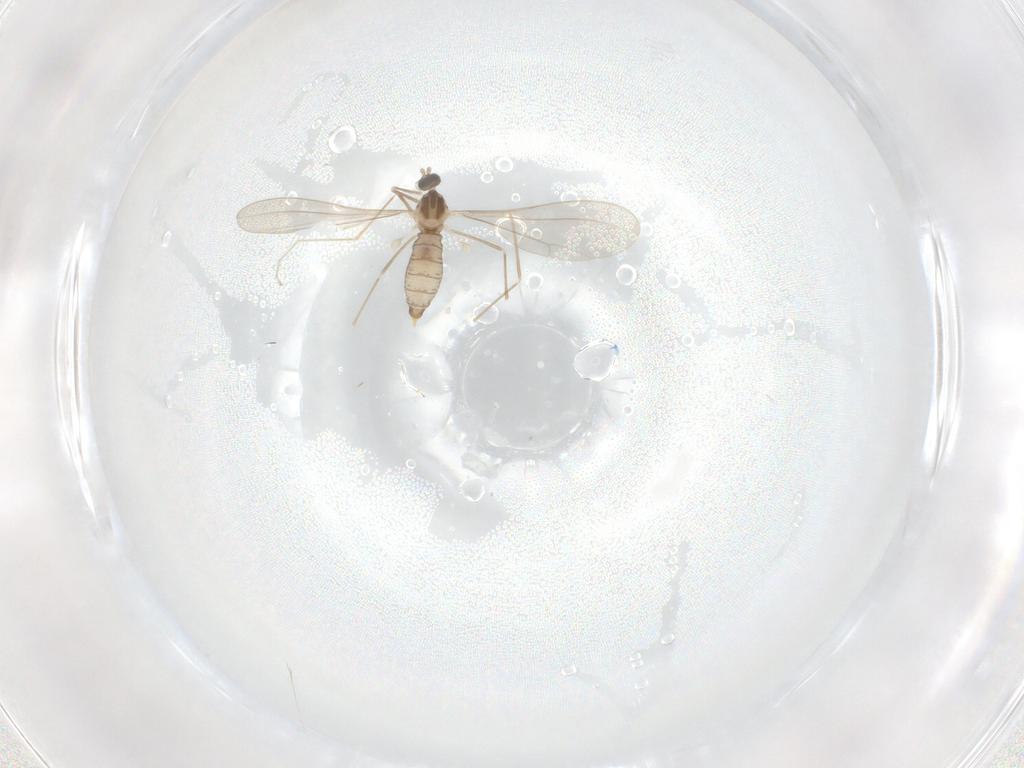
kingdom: Animalia
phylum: Arthropoda
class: Insecta
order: Diptera
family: Cecidomyiidae
